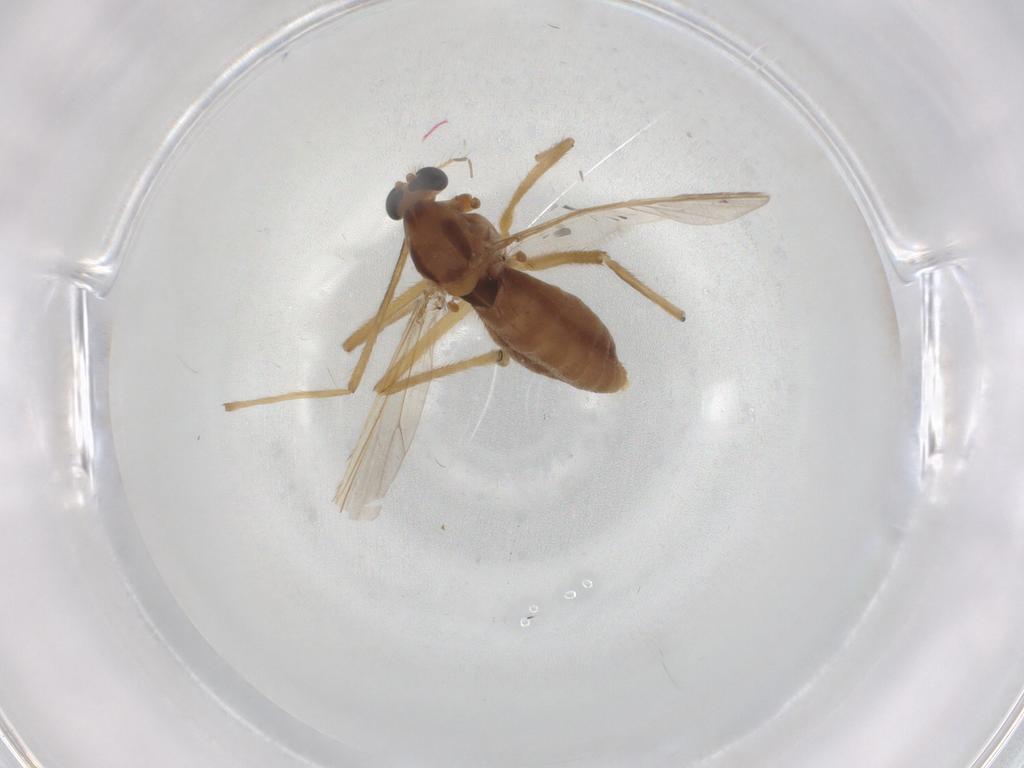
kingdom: Animalia
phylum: Arthropoda
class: Insecta
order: Diptera
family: Chironomidae
